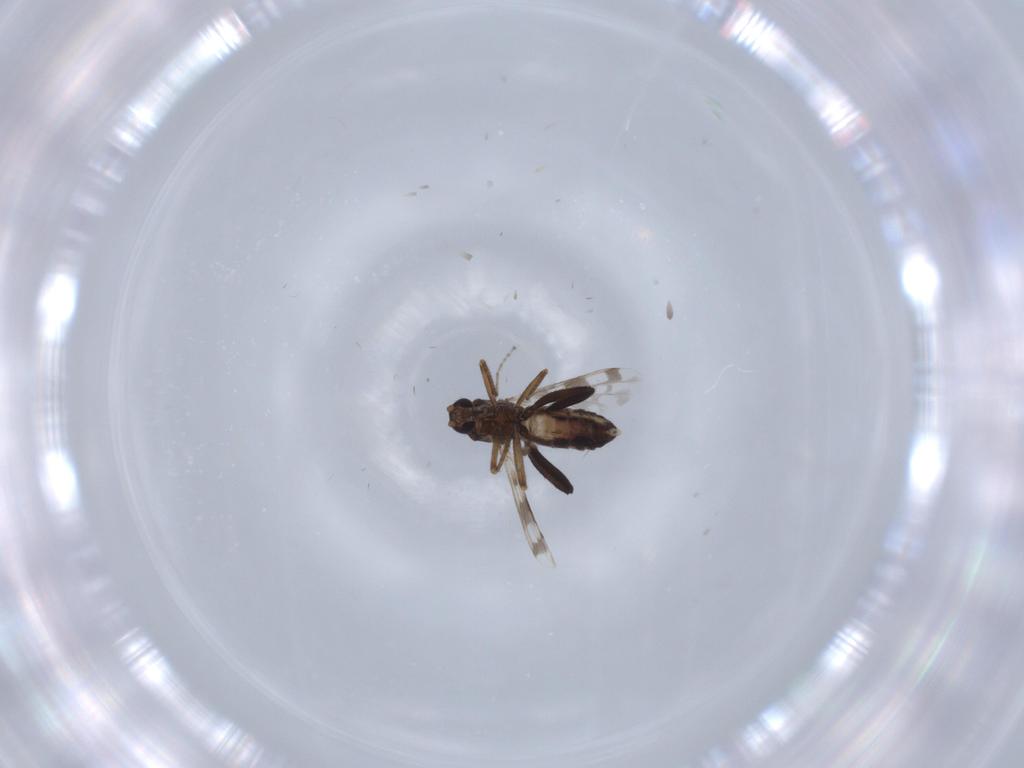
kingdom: Animalia
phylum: Arthropoda
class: Insecta
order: Diptera
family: Ceratopogonidae
